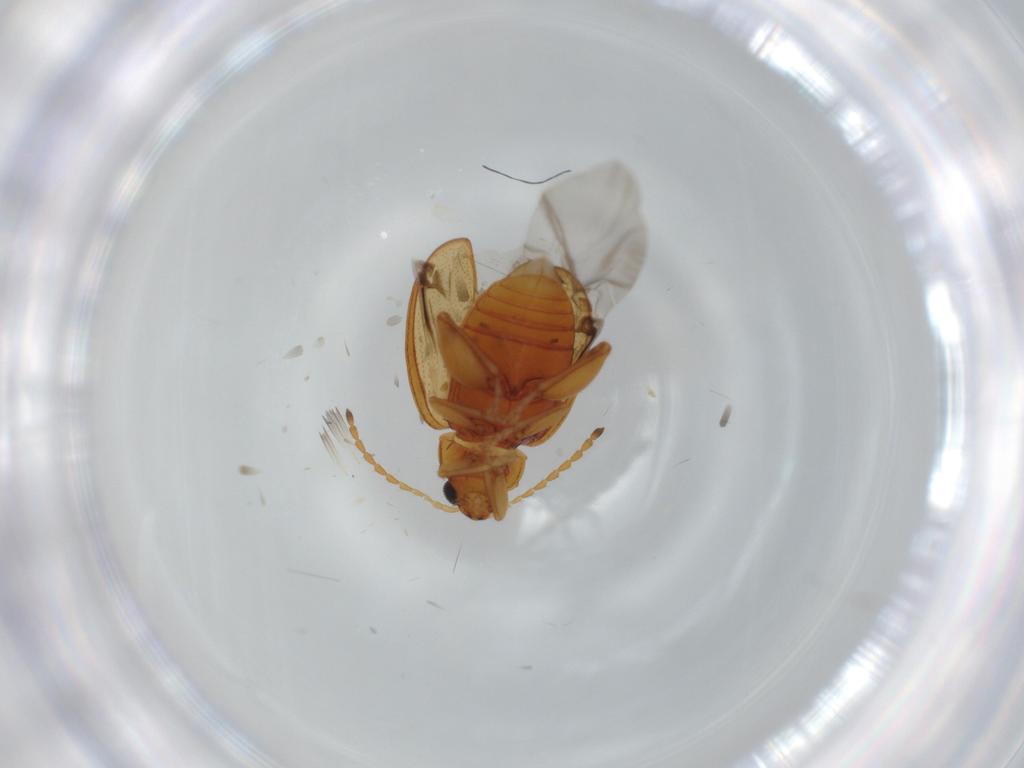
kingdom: Animalia
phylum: Arthropoda
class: Insecta
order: Coleoptera
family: Chrysomelidae
